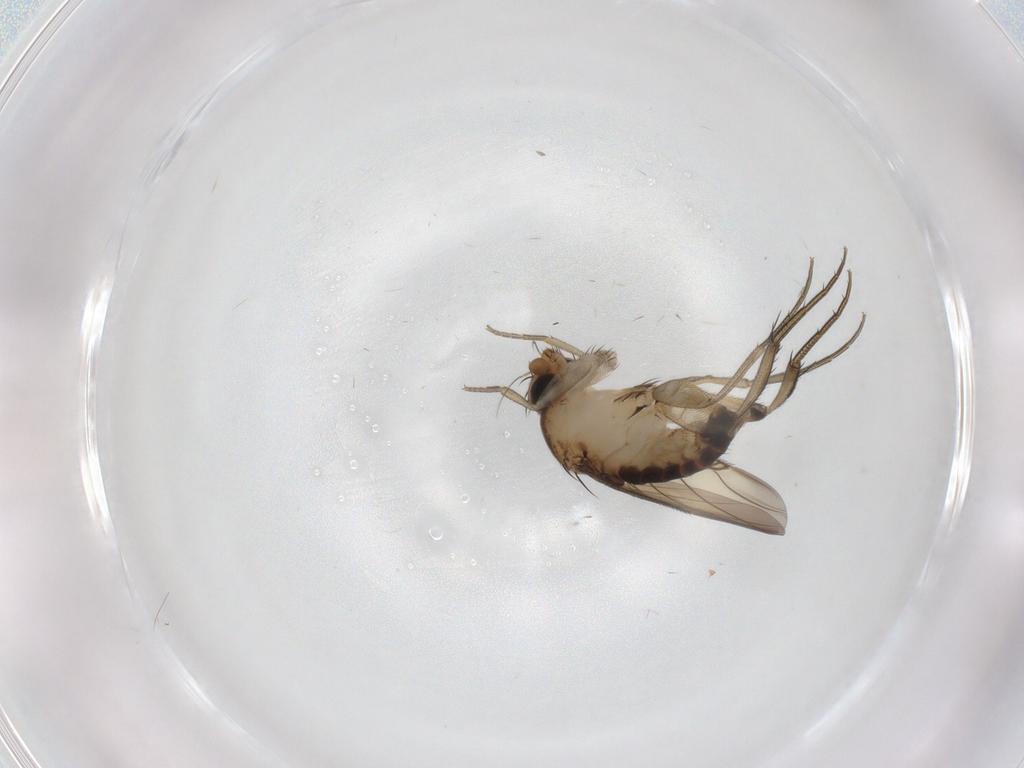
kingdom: Animalia
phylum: Arthropoda
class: Insecta
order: Diptera
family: Phoridae
